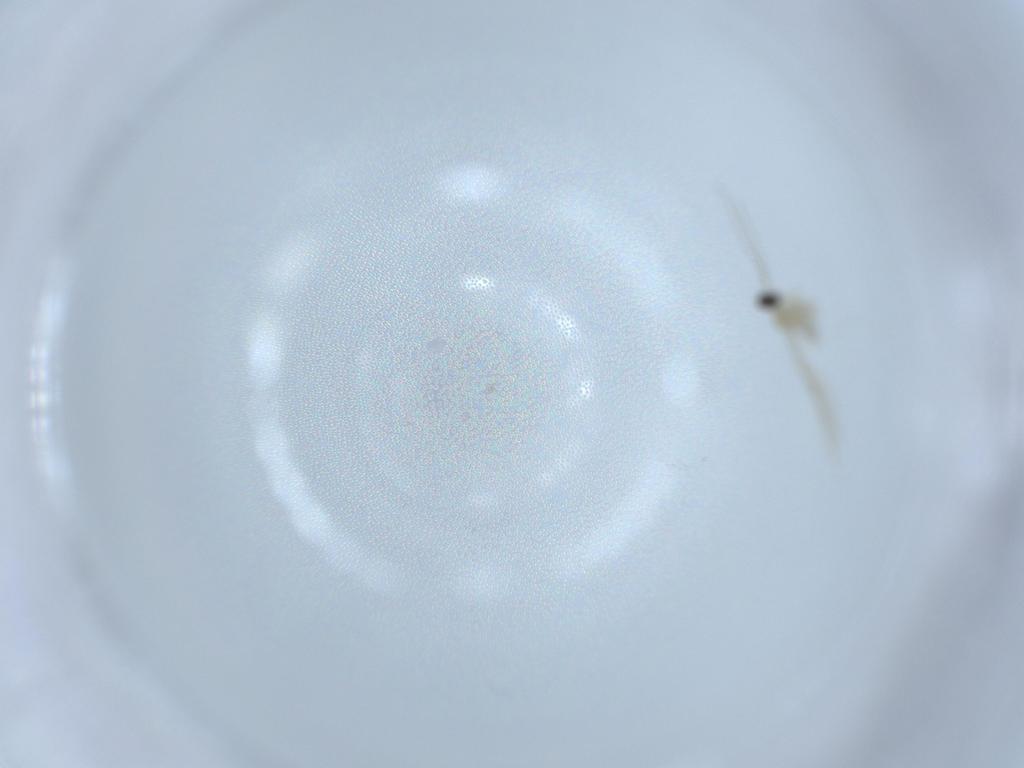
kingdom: Animalia
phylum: Arthropoda
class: Insecta
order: Diptera
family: Cecidomyiidae
